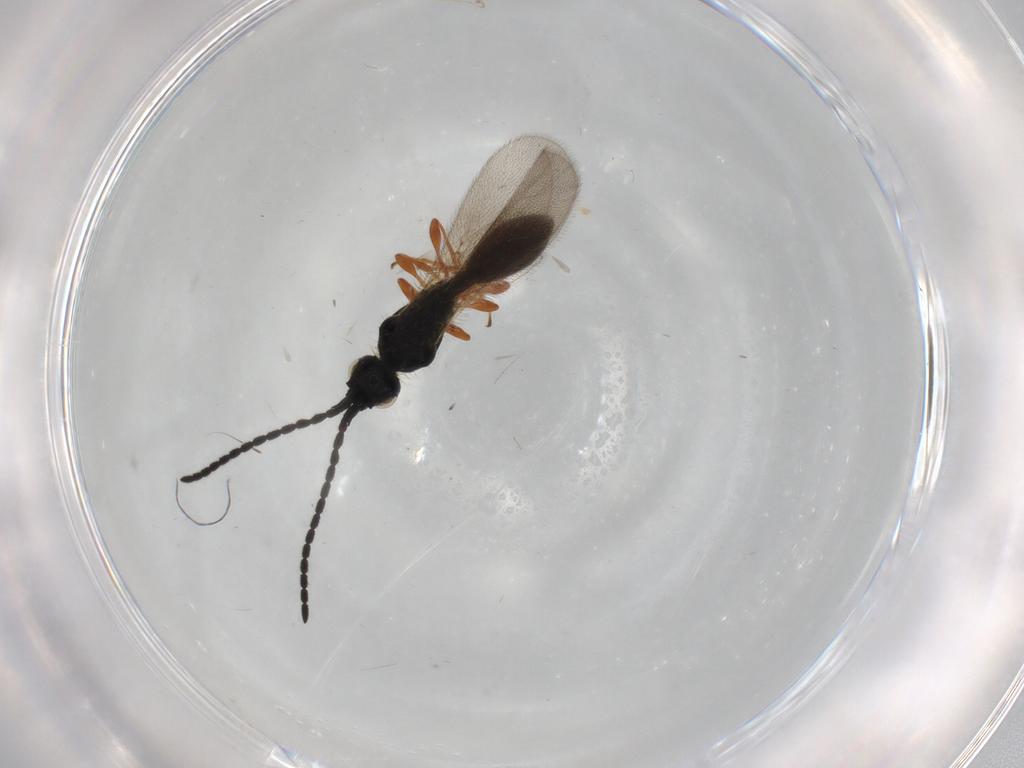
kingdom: Animalia
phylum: Arthropoda
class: Insecta
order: Hymenoptera
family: Diapriidae
